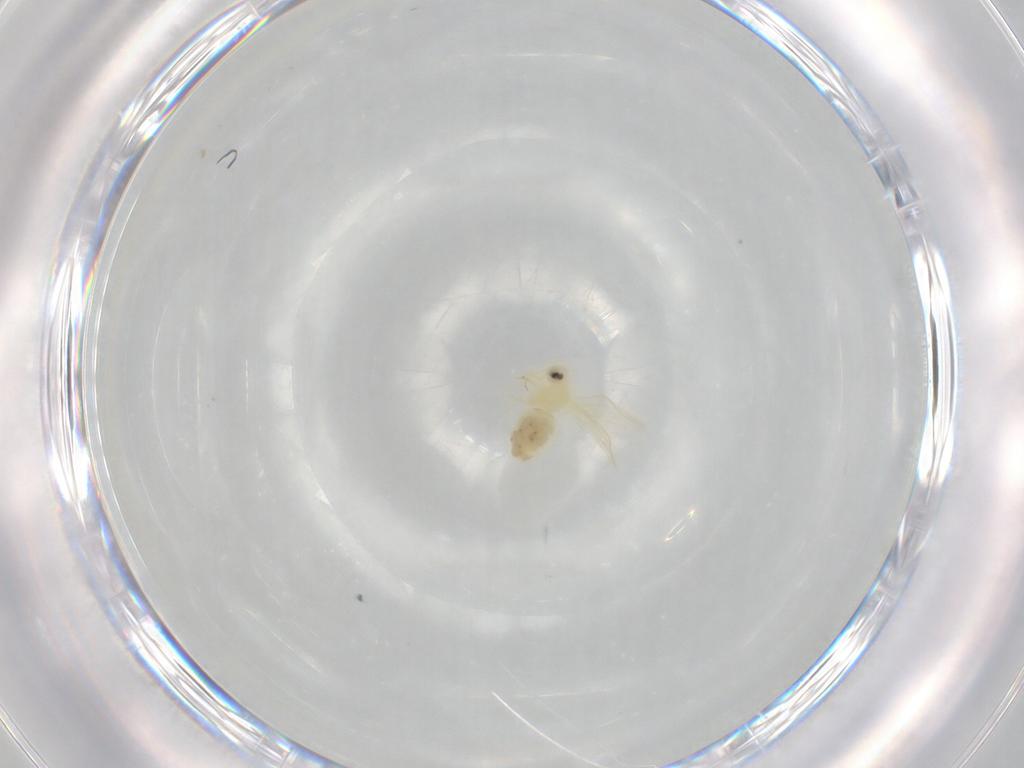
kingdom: Animalia
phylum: Arthropoda
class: Insecta
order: Hemiptera
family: Aleyrodidae
